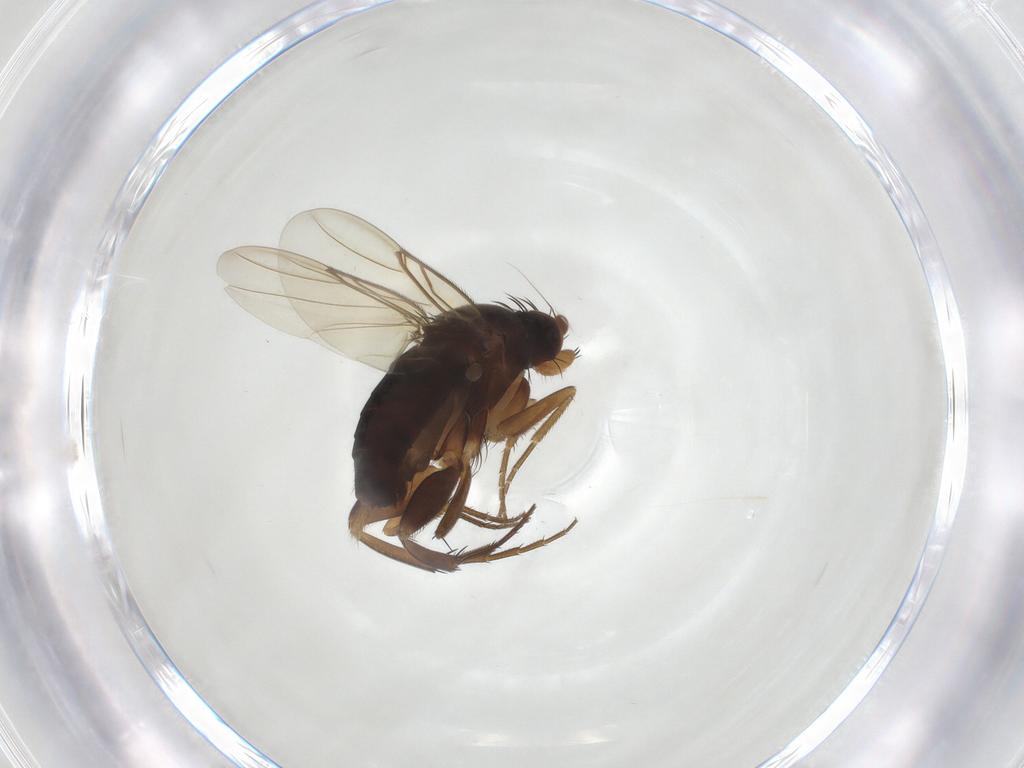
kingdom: Animalia
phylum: Arthropoda
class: Insecta
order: Diptera
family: Phoridae
